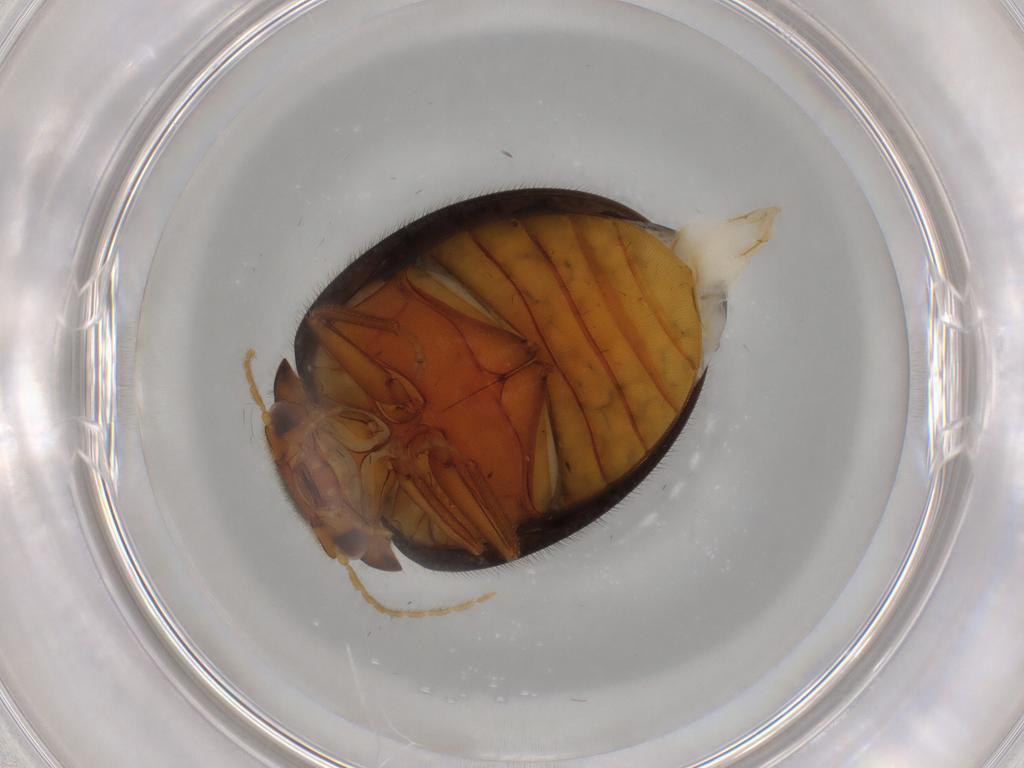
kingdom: Animalia
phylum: Arthropoda
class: Insecta
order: Coleoptera
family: Scirtidae
